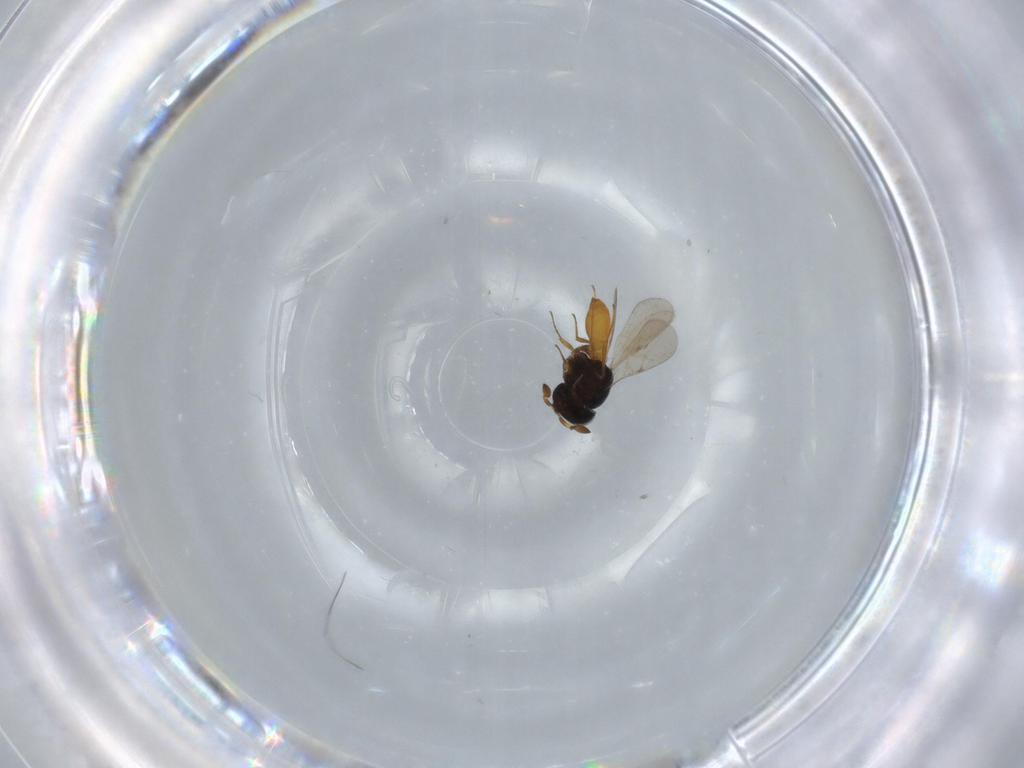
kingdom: Animalia
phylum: Arthropoda
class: Insecta
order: Hymenoptera
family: Scelionidae
